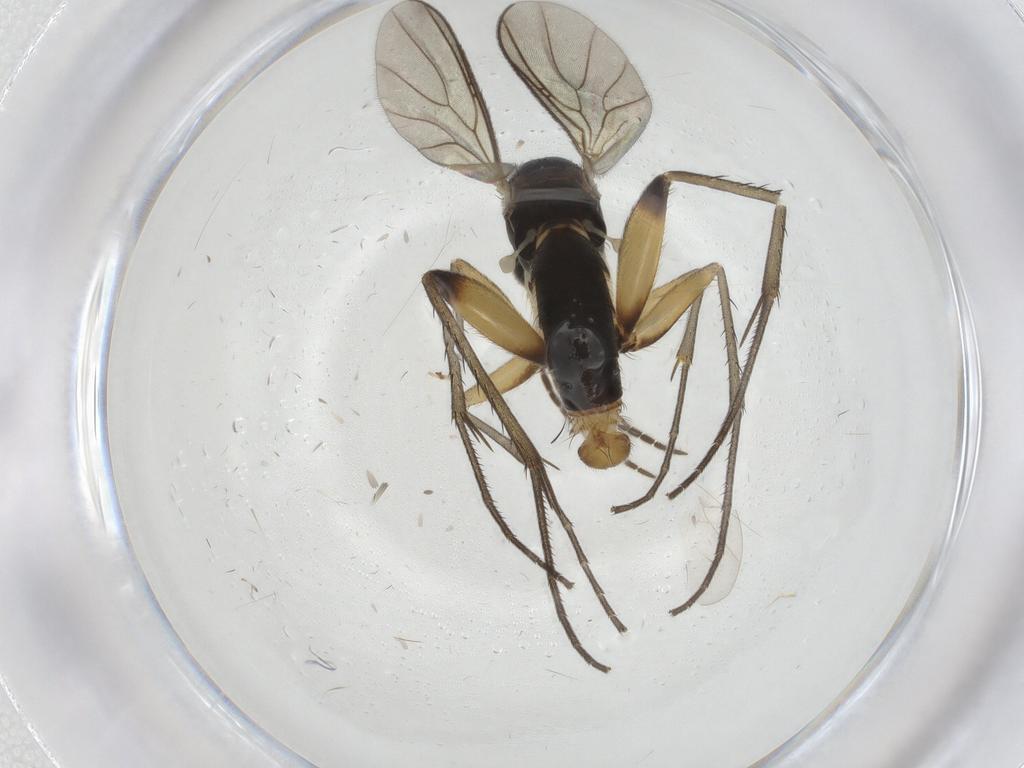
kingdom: Animalia
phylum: Arthropoda
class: Insecta
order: Diptera
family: Mycetophilidae
